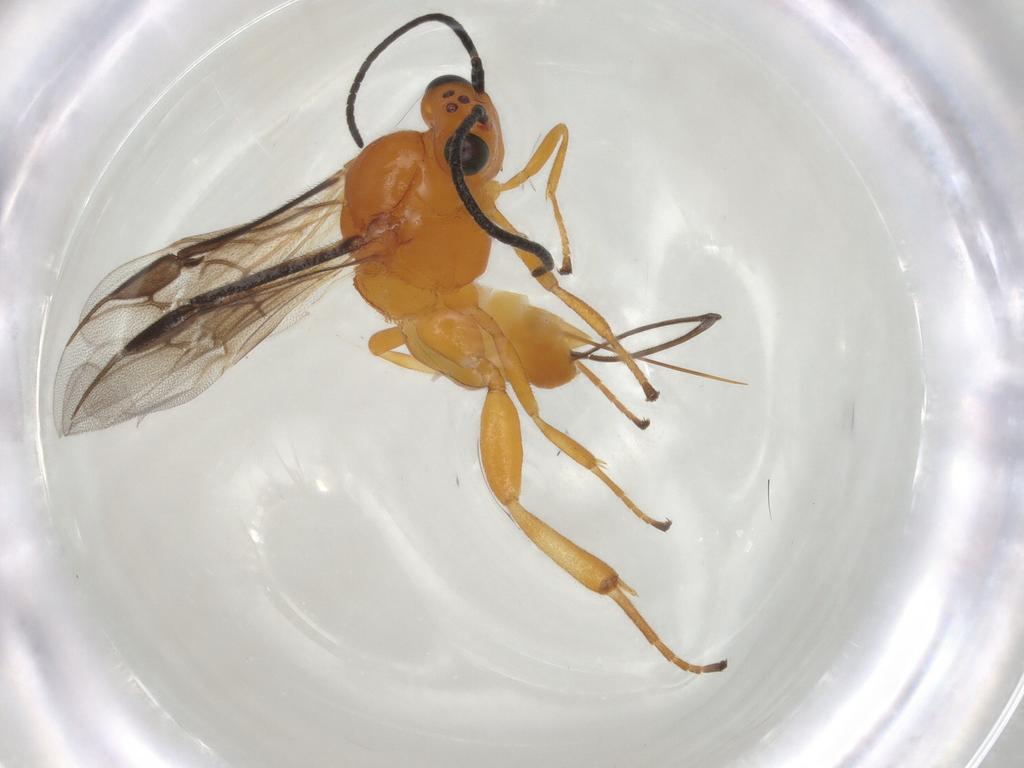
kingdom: Animalia
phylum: Arthropoda
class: Insecta
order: Hymenoptera
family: Braconidae
